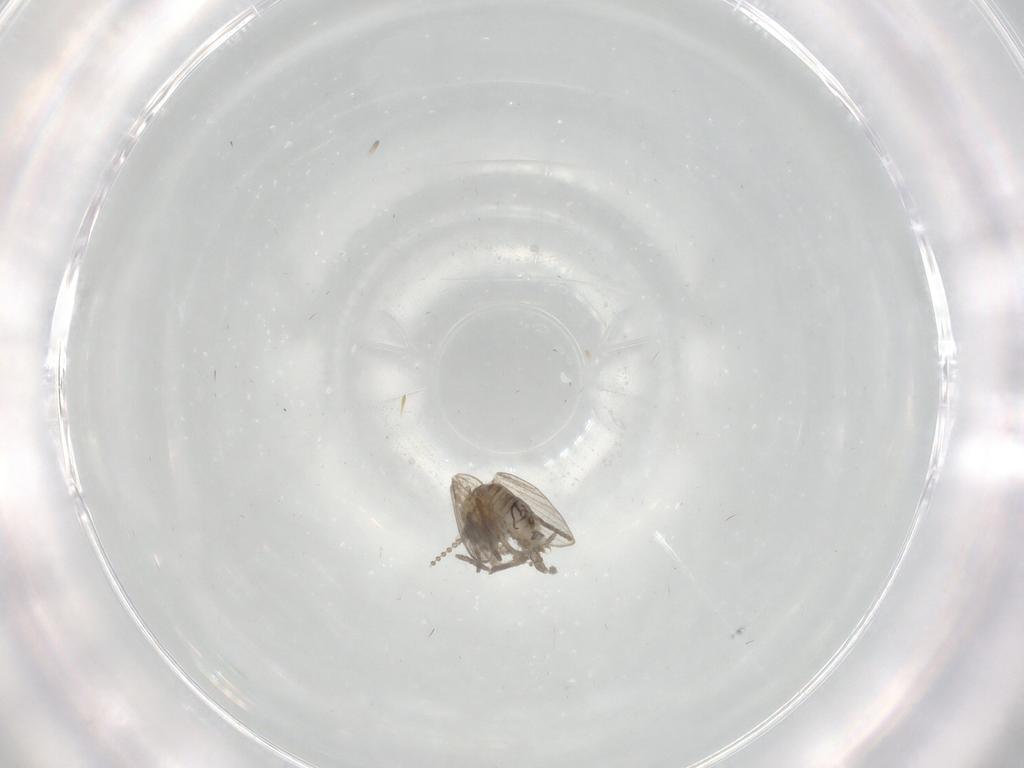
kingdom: Animalia
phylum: Arthropoda
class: Insecta
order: Diptera
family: Psychodidae
